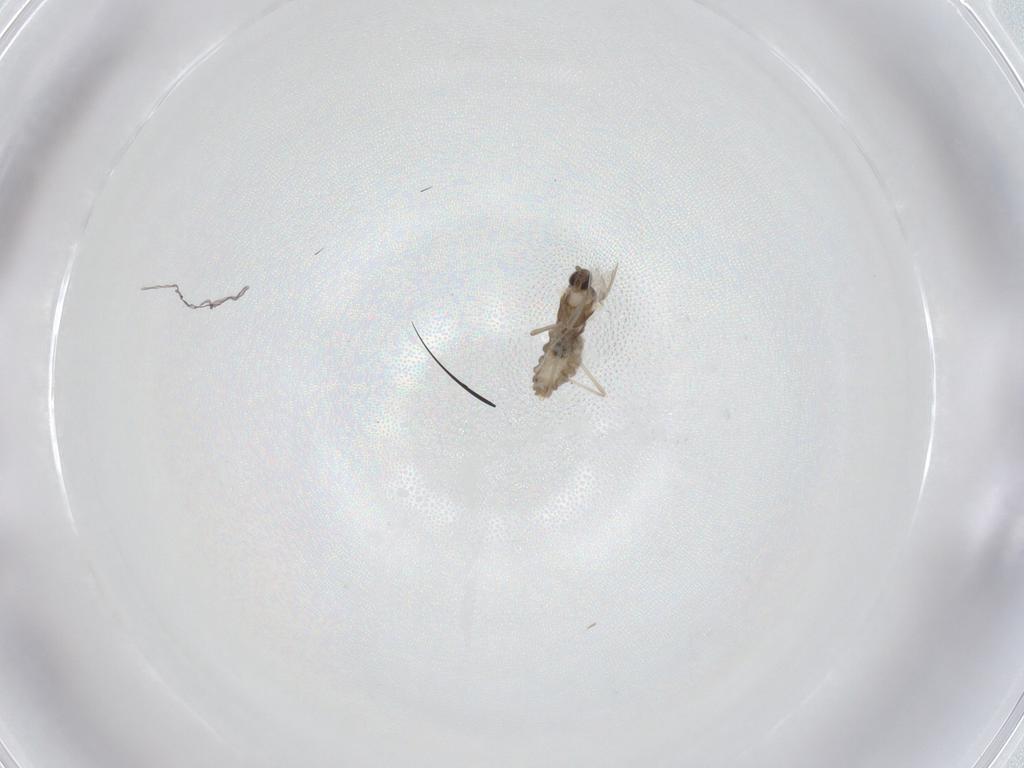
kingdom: Animalia
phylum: Arthropoda
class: Insecta
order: Diptera
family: Cecidomyiidae
